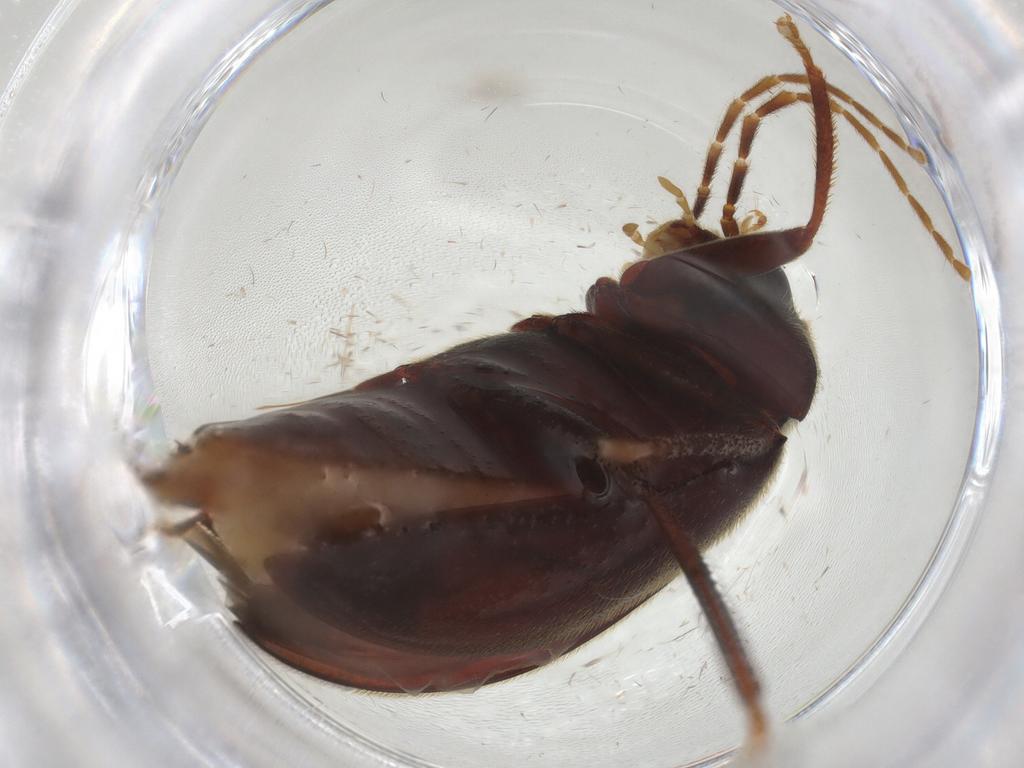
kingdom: Animalia
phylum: Arthropoda
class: Insecta
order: Coleoptera
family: Ptilodactylidae
